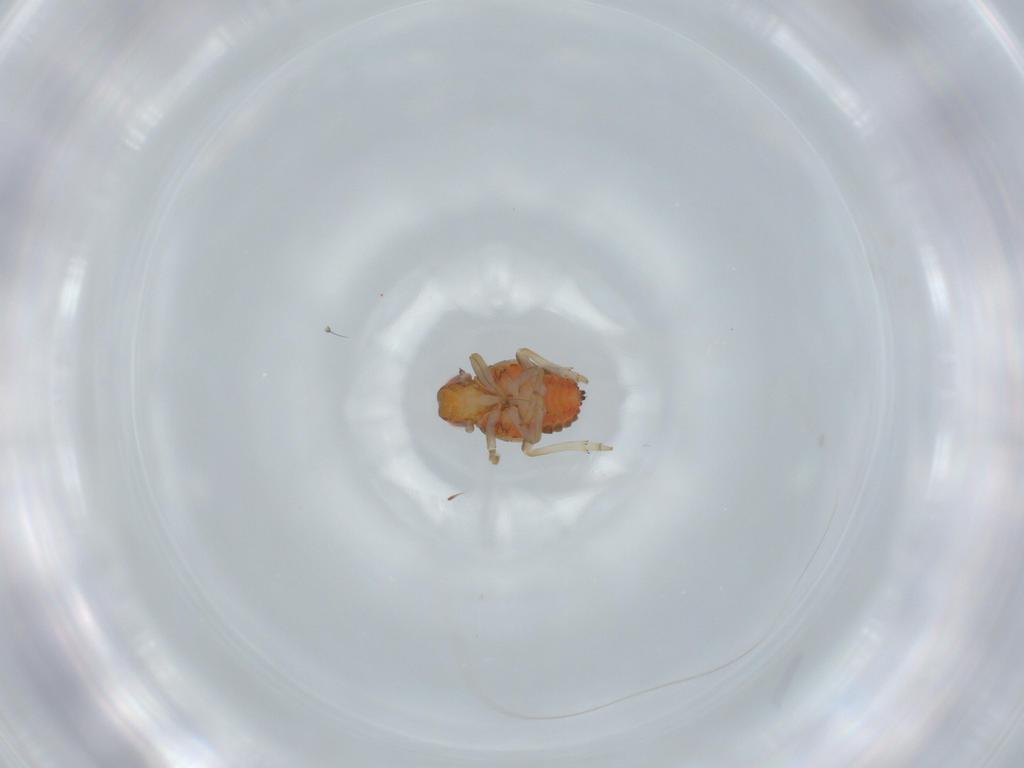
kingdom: Animalia
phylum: Arthropoda
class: Insecta
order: Hemiptera
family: Issidae
